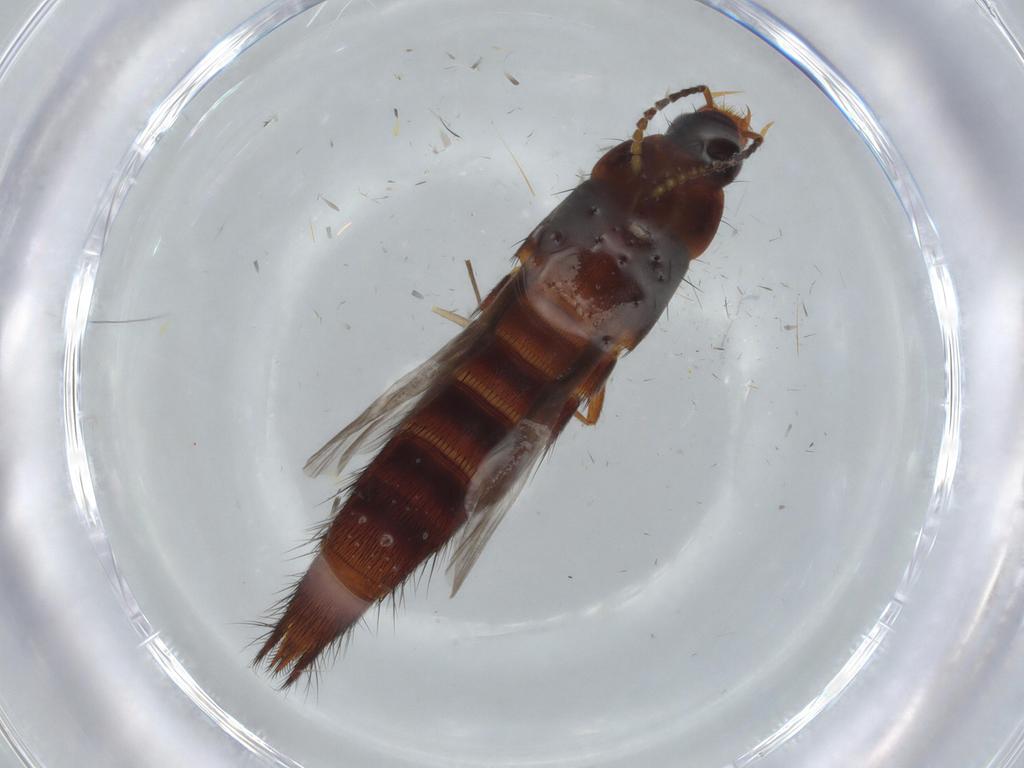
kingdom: Animalia
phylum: Arthropoda
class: Insecta
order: Coleoptera
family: Staphylinidae
